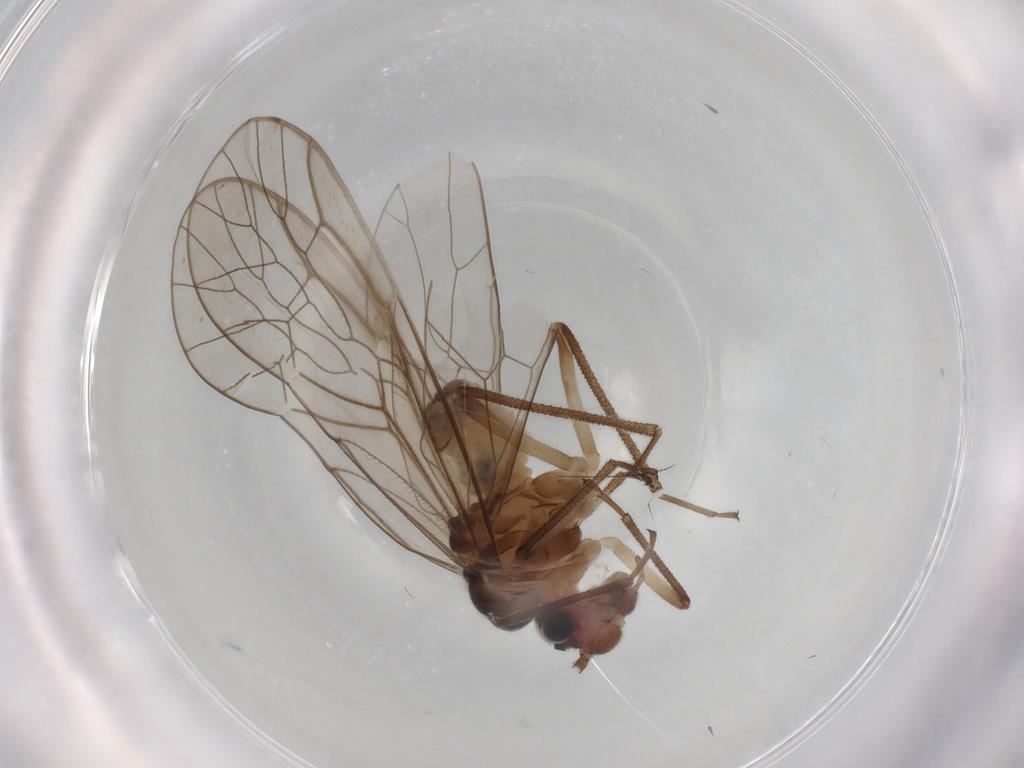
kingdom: Animalia
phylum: Arthropoda
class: Insecta
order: Psocodea
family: Stenopsocidae
